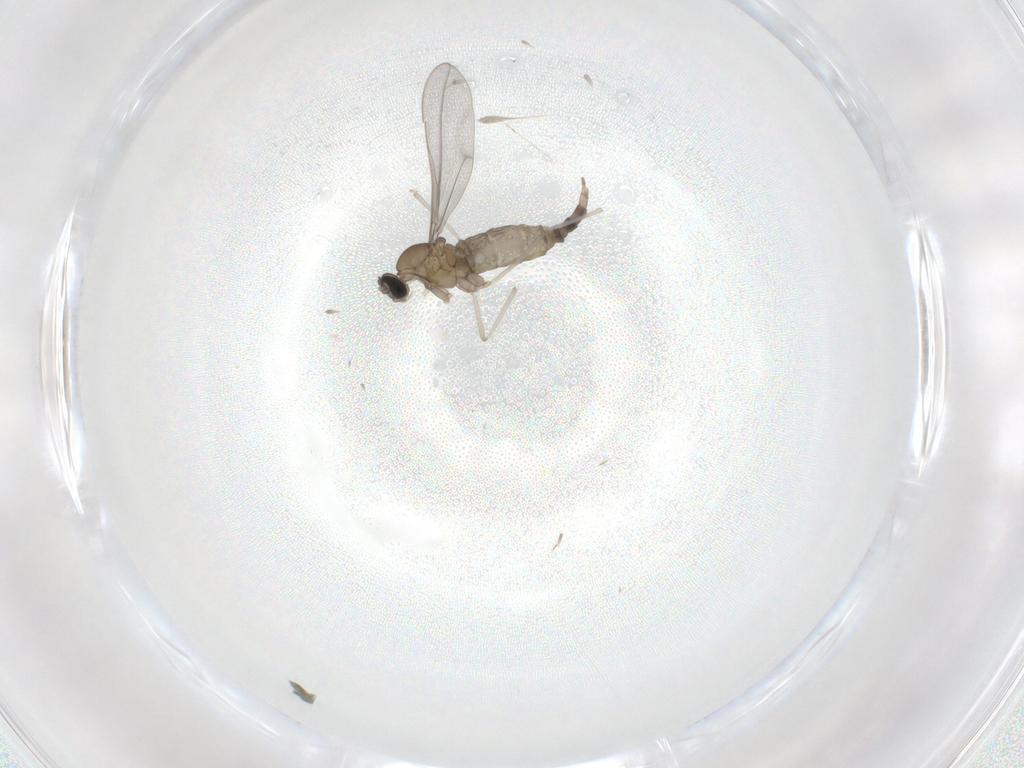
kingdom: Animalia
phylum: Arthropoda
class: Insecta
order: Diptera
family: Cecidomyiidae
